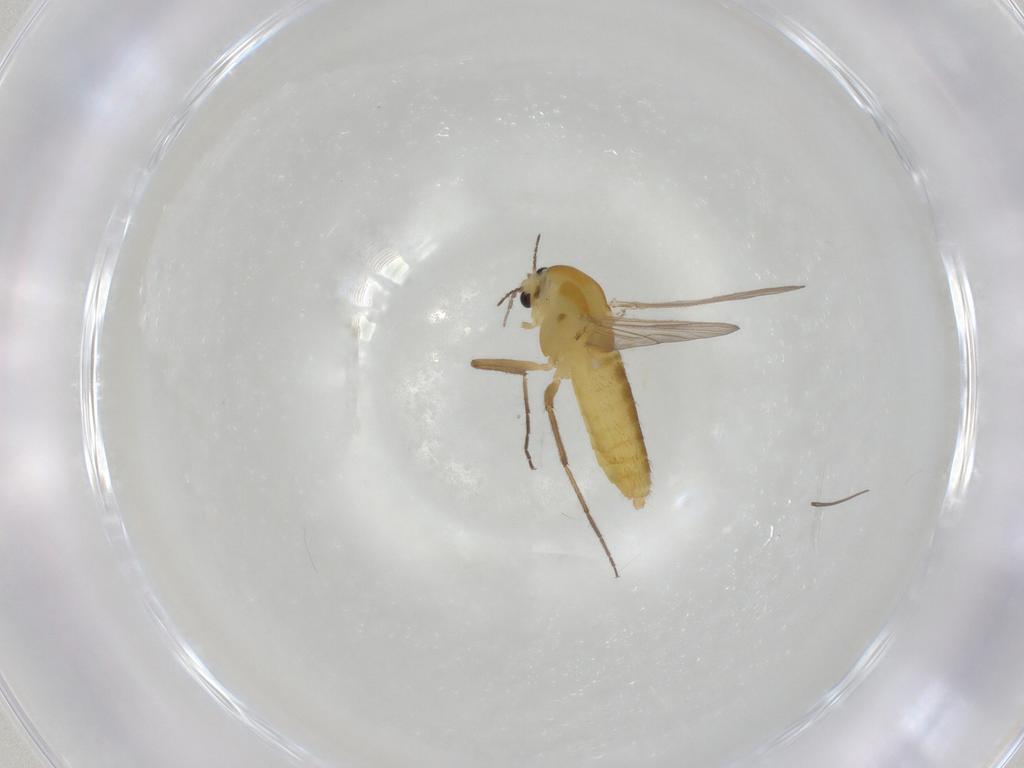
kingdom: Animalia
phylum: Arthropoda
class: Insecta
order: Diptera
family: Chironomidae
